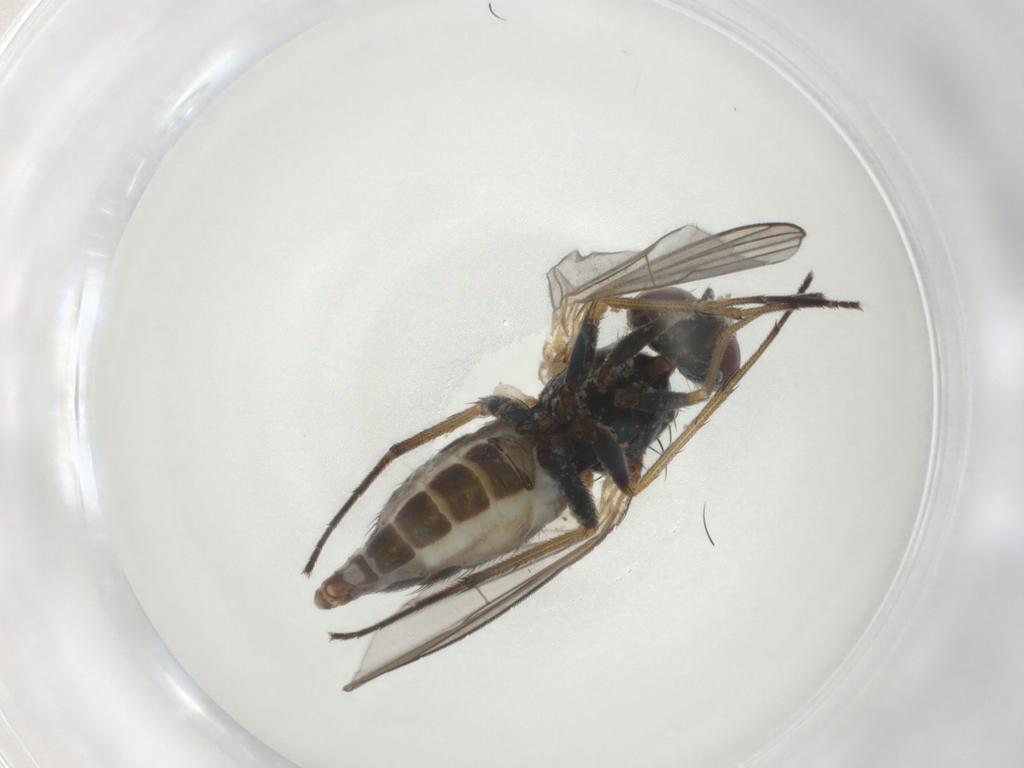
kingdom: Animalia
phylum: Arthropoda
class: Insecta
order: Diptera
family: Dolichopodidae
